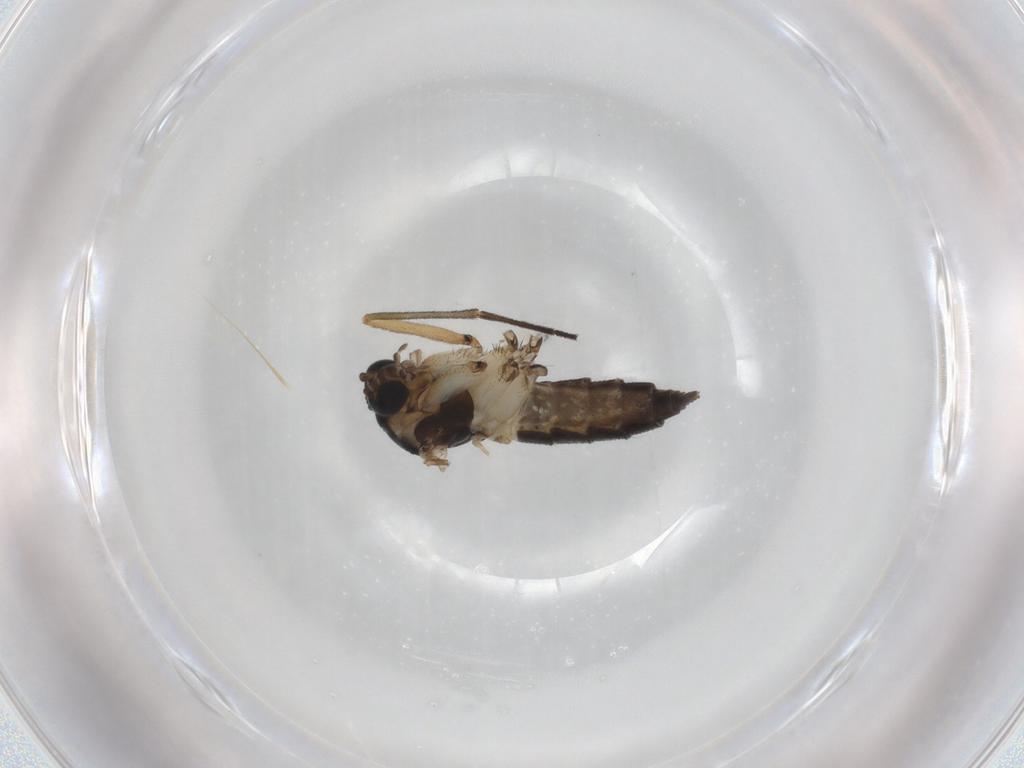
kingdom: Animalia
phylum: Arthropoda
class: Insecta
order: Diptera
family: Sciaridae
